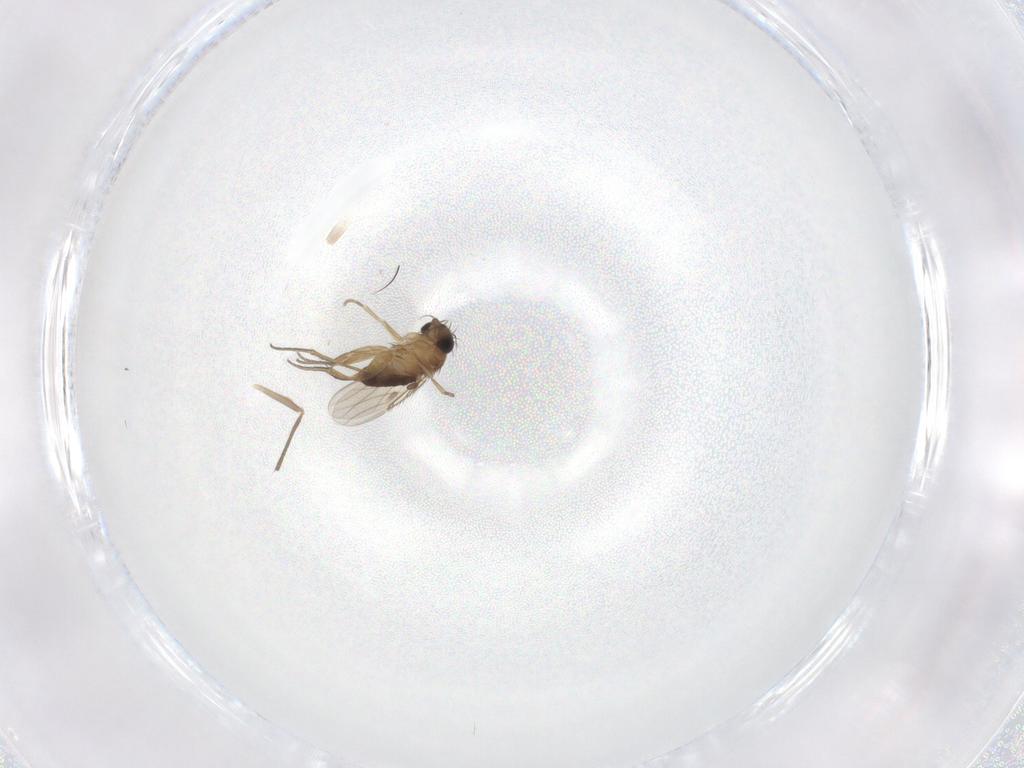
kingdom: Animalia
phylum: Arthropoda
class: Insecta
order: Diptera
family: Phoridae
